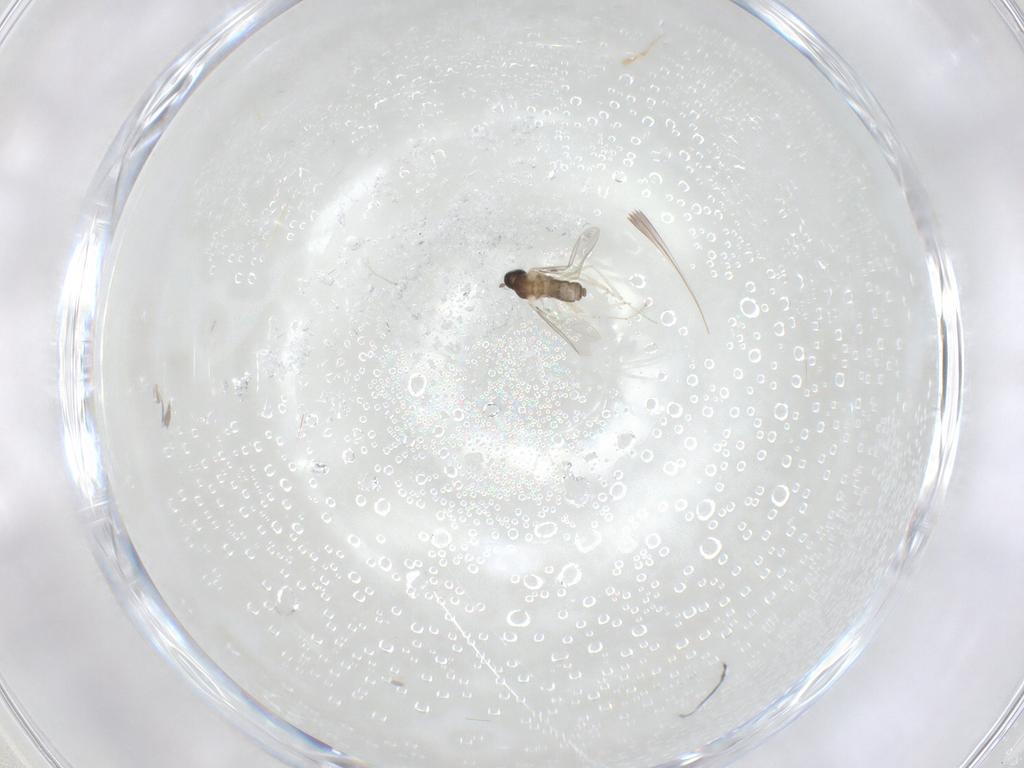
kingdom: Animalia
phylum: Arthropoda
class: Insecta
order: Diptera
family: Cecidomyiidae
